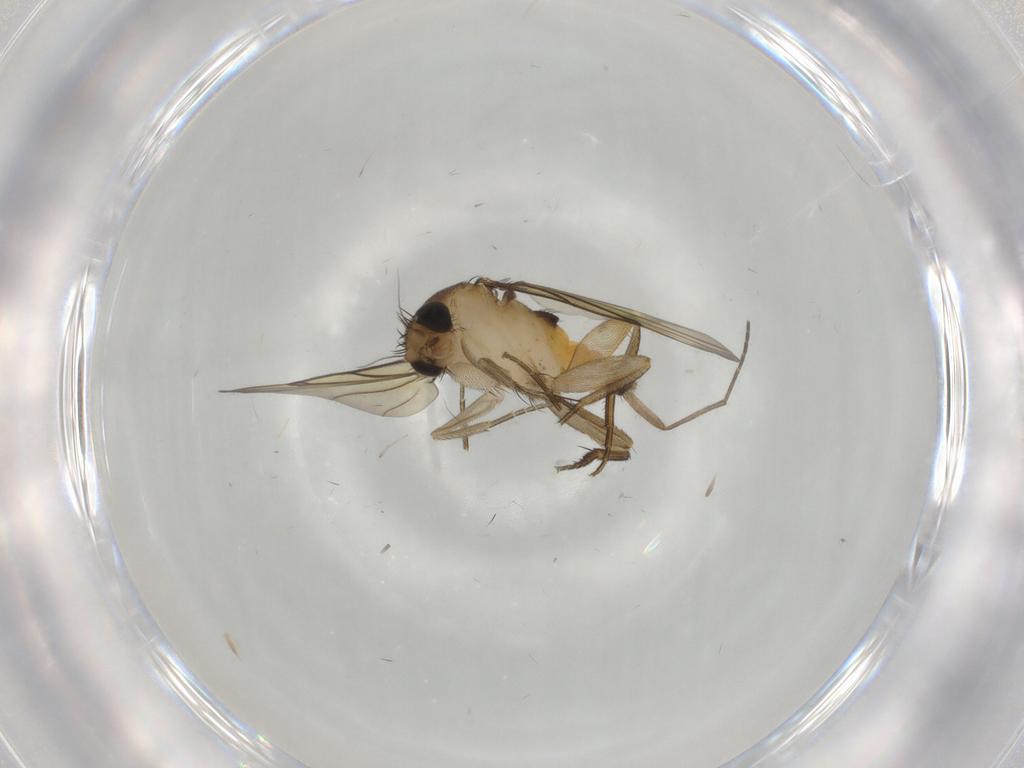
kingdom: Animalia
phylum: Arthropoda
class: Insecta
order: Diptera
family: Sciaridae
